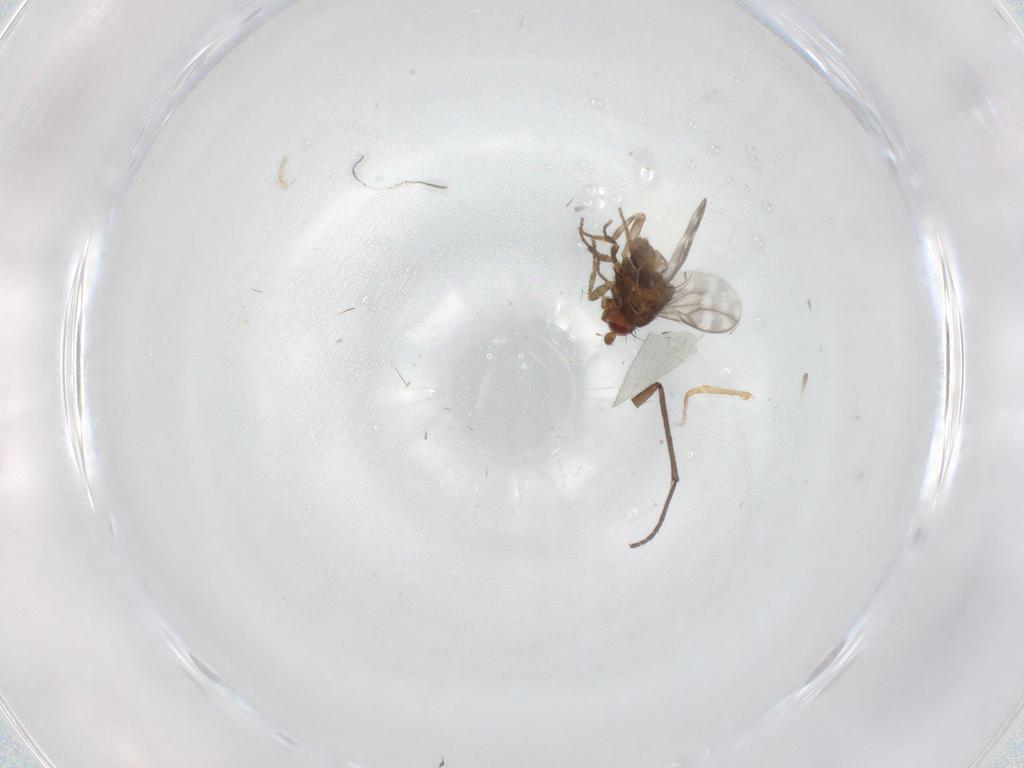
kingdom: Animalia
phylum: Arthropoda
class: Insecta
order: Diptera
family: Sphaeroceridae
